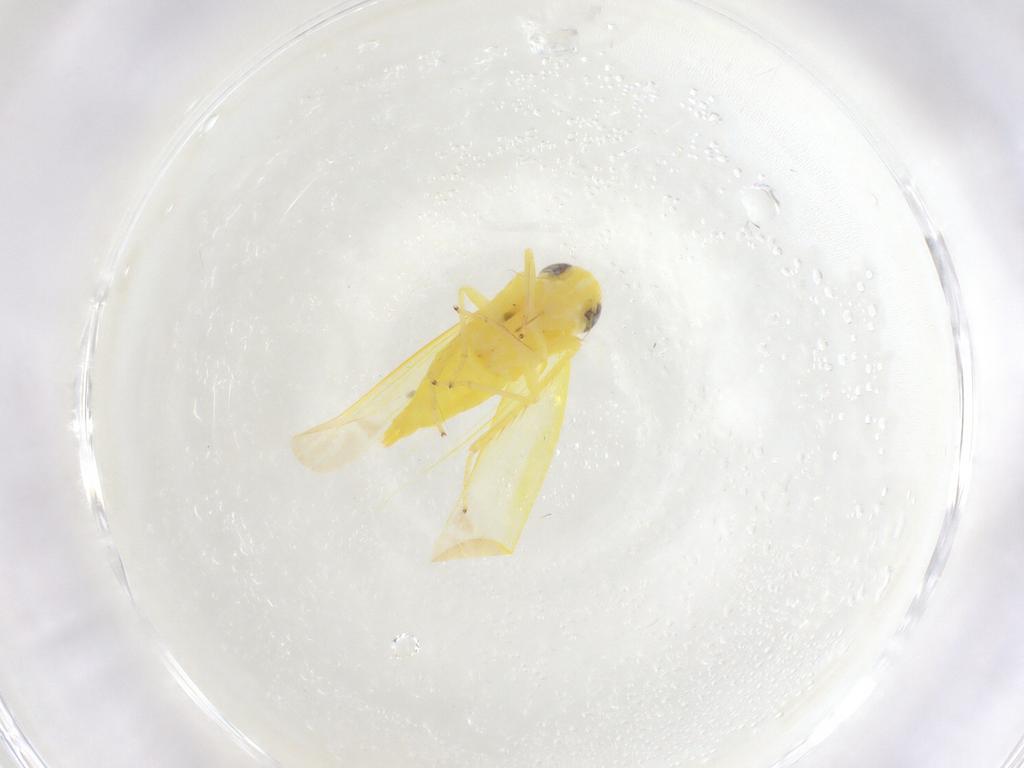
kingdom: Animalia
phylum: Arthropoda
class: Insecta
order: Hemiptera
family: Cicadellidae
